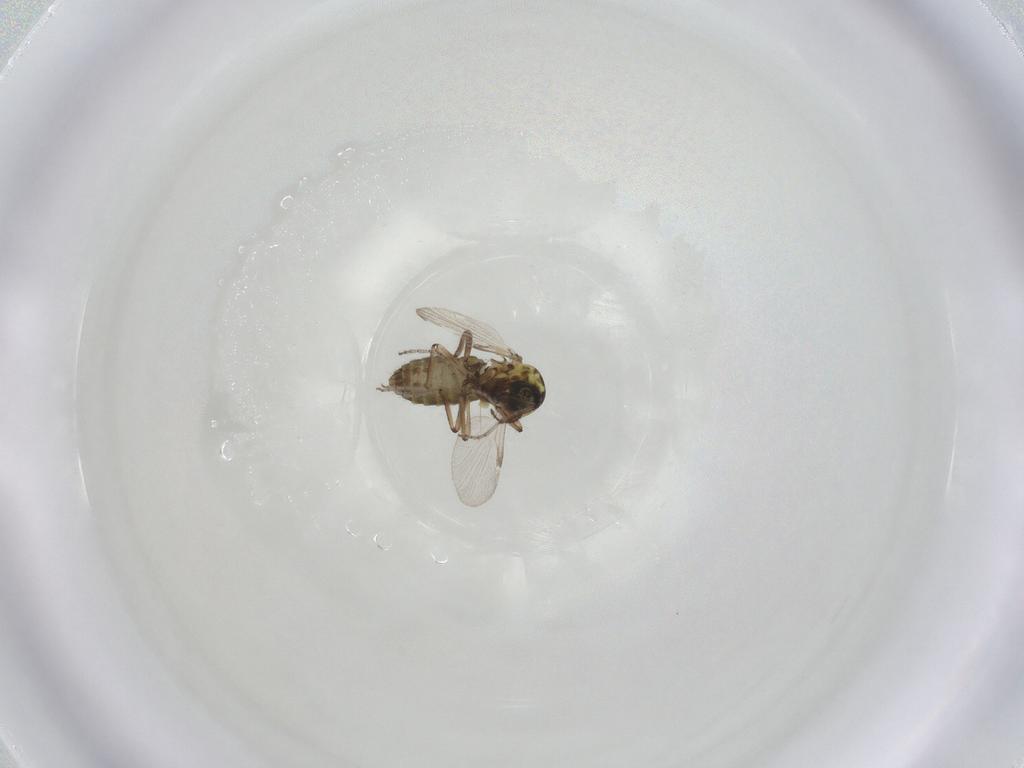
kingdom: Animalia
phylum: Arthropoda
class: Insecta
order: Diptera
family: Ceratopogonidae
